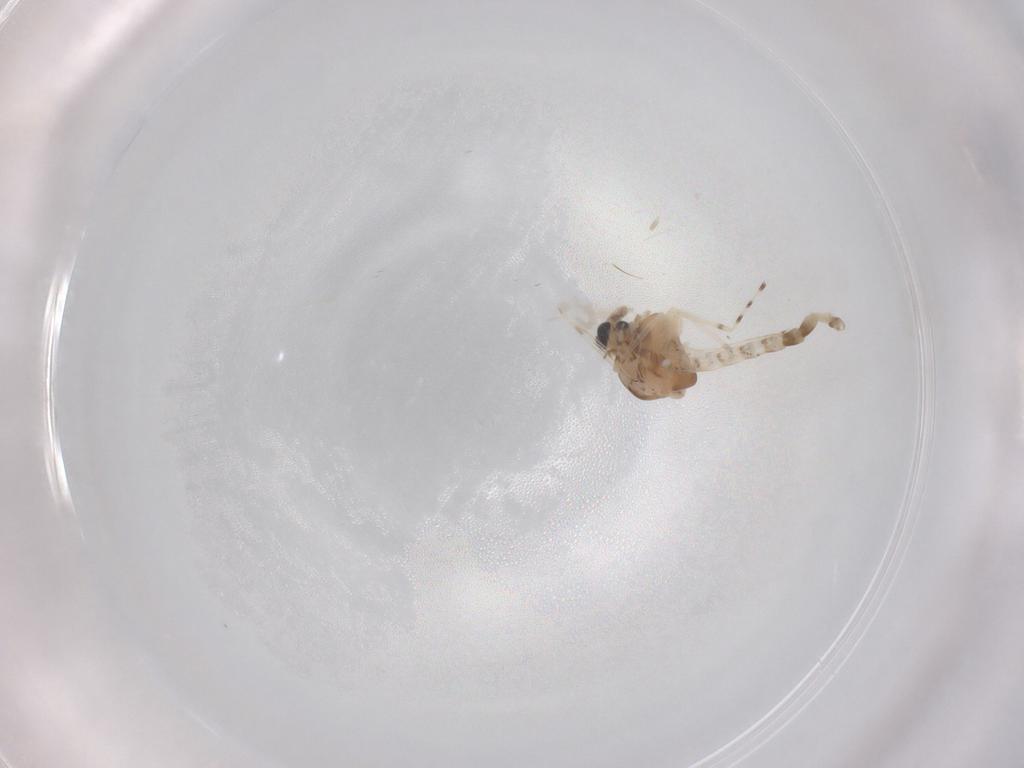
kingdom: Animalia
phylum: Arthropoda
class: Insecta
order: Diptera
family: Chironomidae
